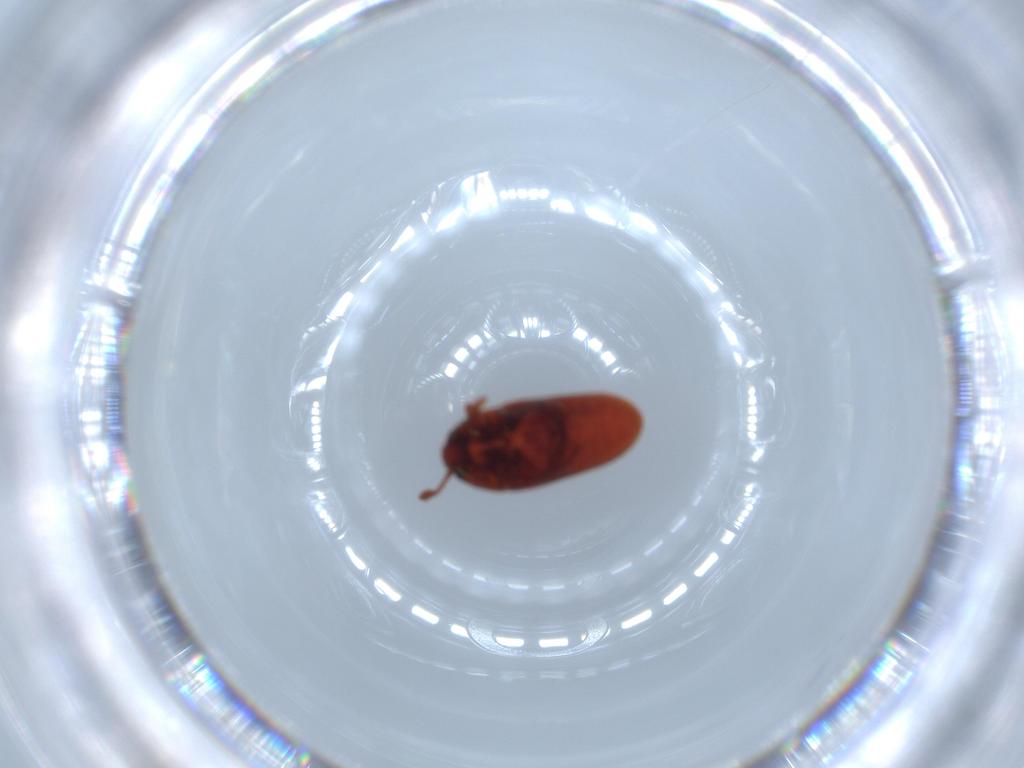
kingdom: Animalia
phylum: Arthropoda
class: Insecta
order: Coleoptera
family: Throscidae
